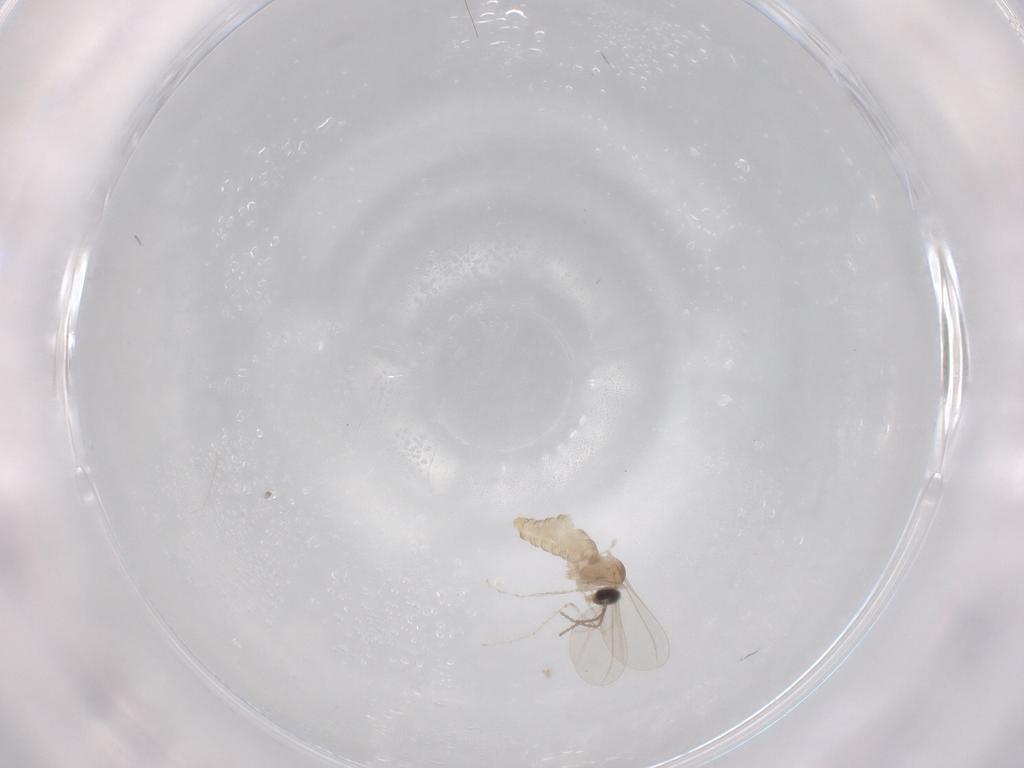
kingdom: Animalia
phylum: Arthropoda
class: Insecta
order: Diptera
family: Cecidomyiidae
